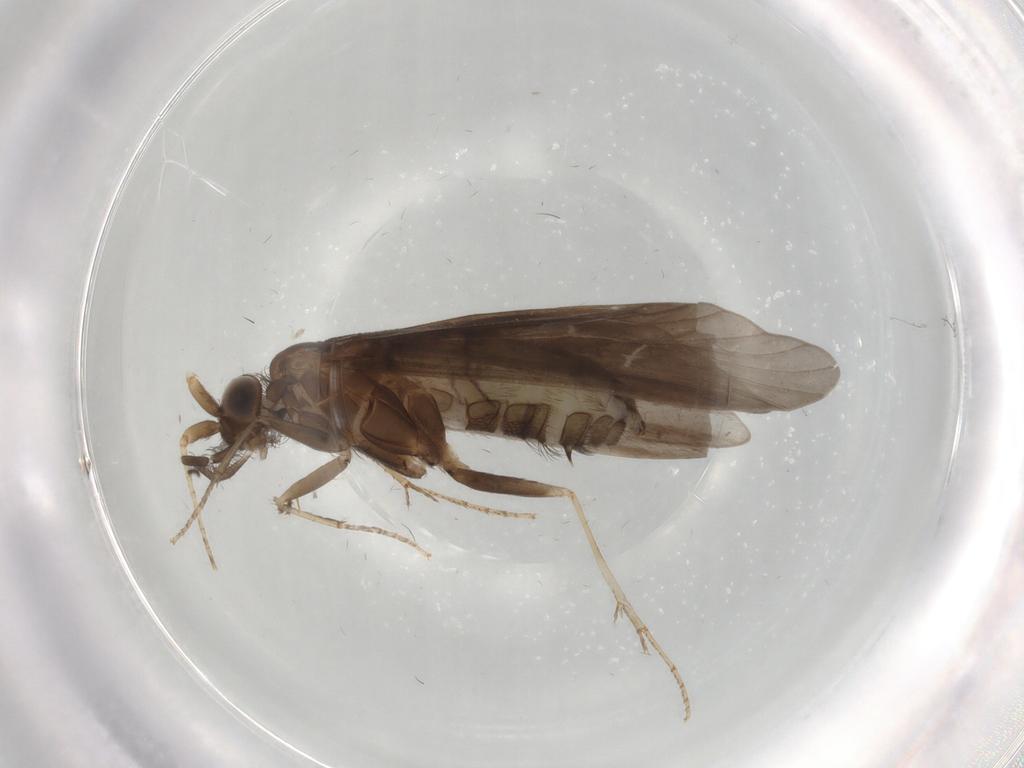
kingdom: Animalia
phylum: Arthropoda
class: Insecta
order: Trichoptera
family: Helicopsychidae
